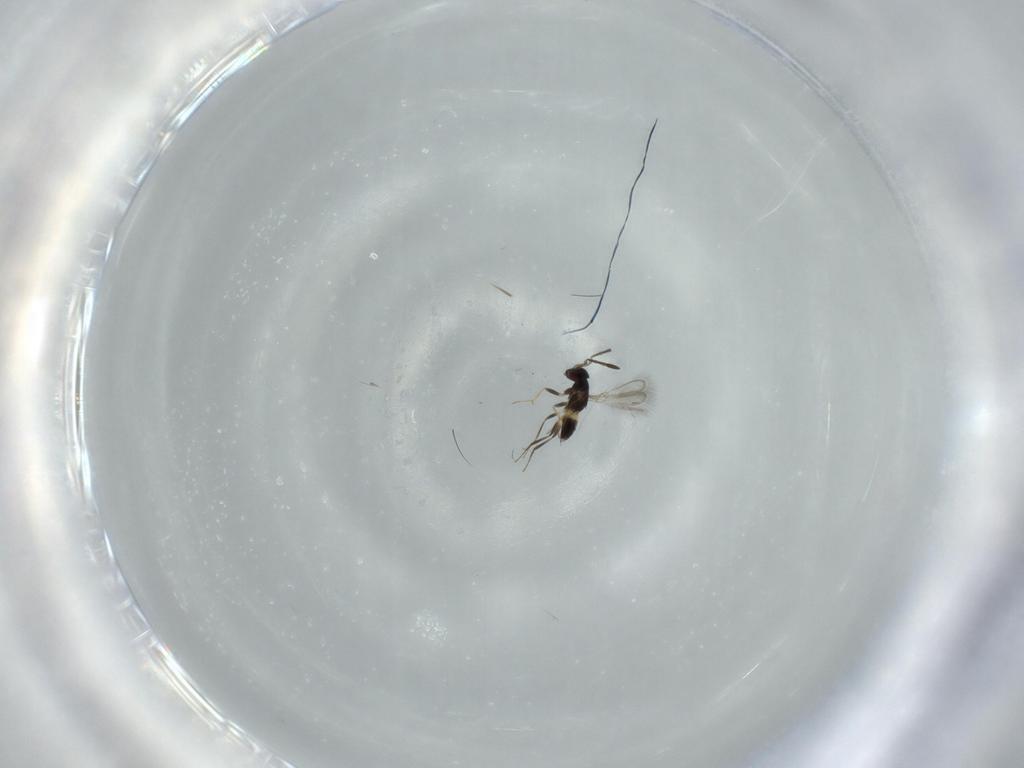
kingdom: Animalia
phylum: Arthropoda
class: Insecta
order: Hymenoptera
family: Mymaridae
